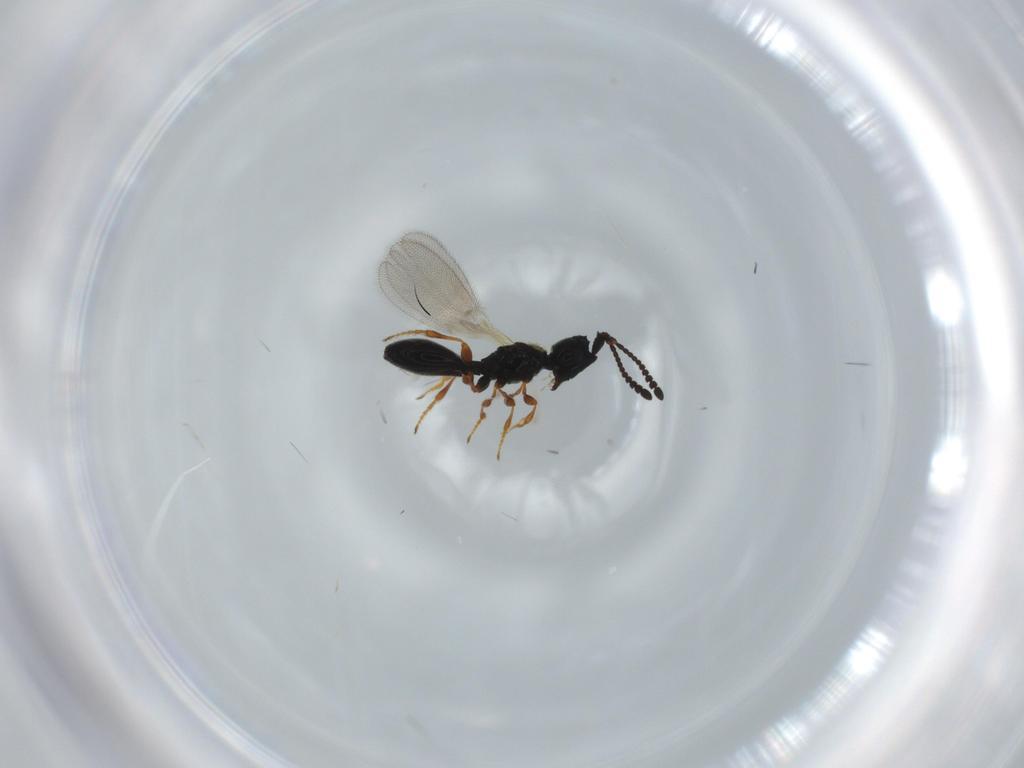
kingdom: Animalia
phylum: Arthropoda
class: Insecta
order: Hymenoptera
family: Diapriidae
